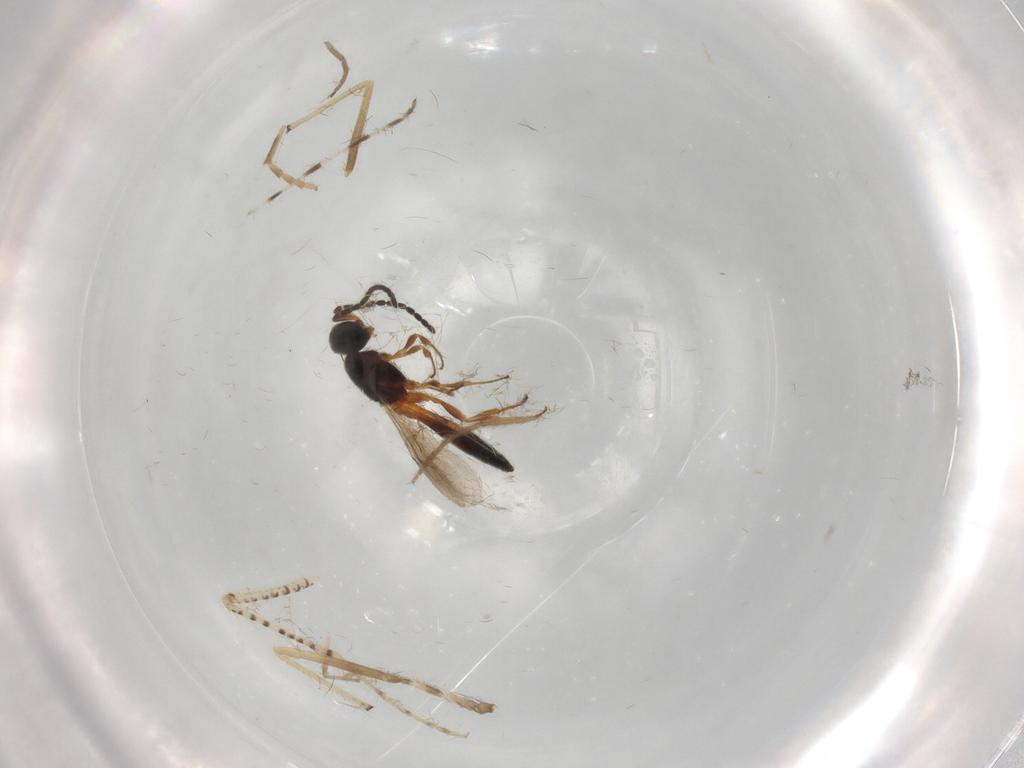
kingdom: Animalia
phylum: Arthropoda
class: Insecta
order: Hymenoptera
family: Scelionidae
